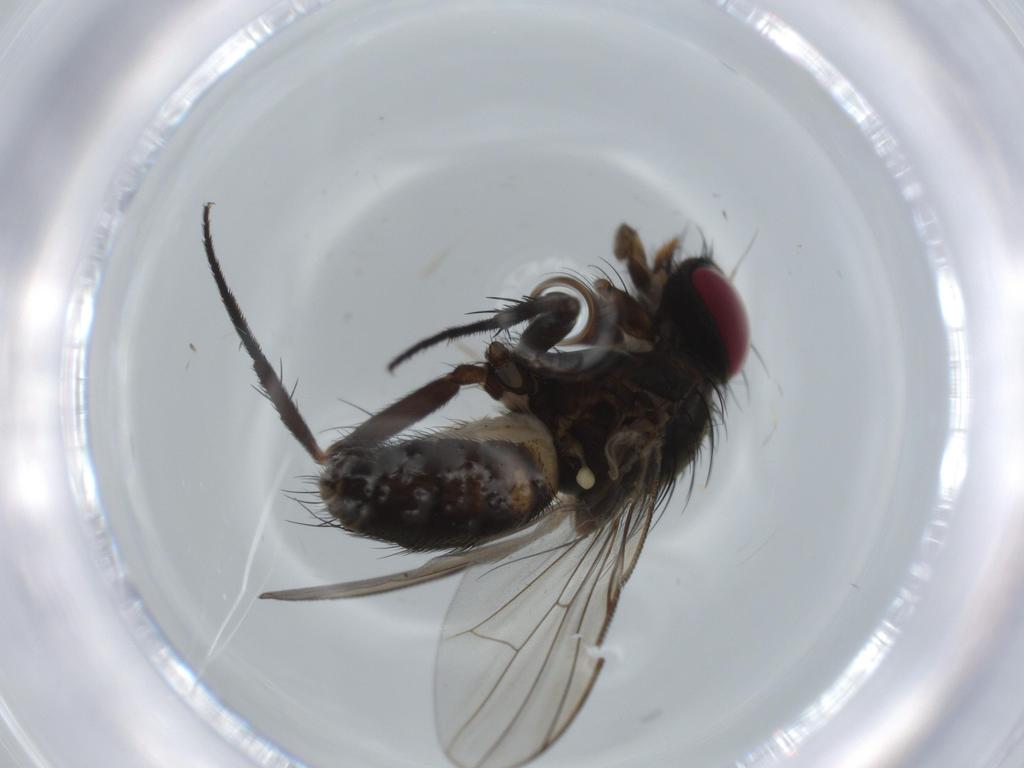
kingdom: Animalia
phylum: Arthropoda
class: Insecta
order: Diptera
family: Fannia
